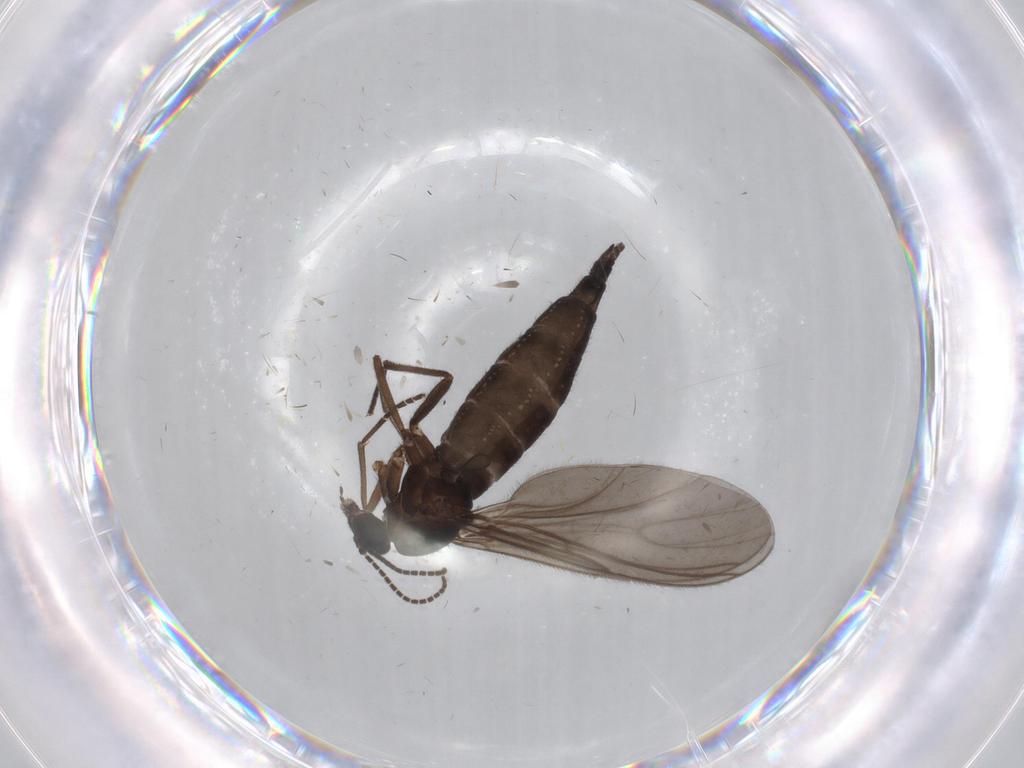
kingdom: Animalia
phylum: Arthropoda
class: Insecta
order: Diptera
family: Sciaridae
